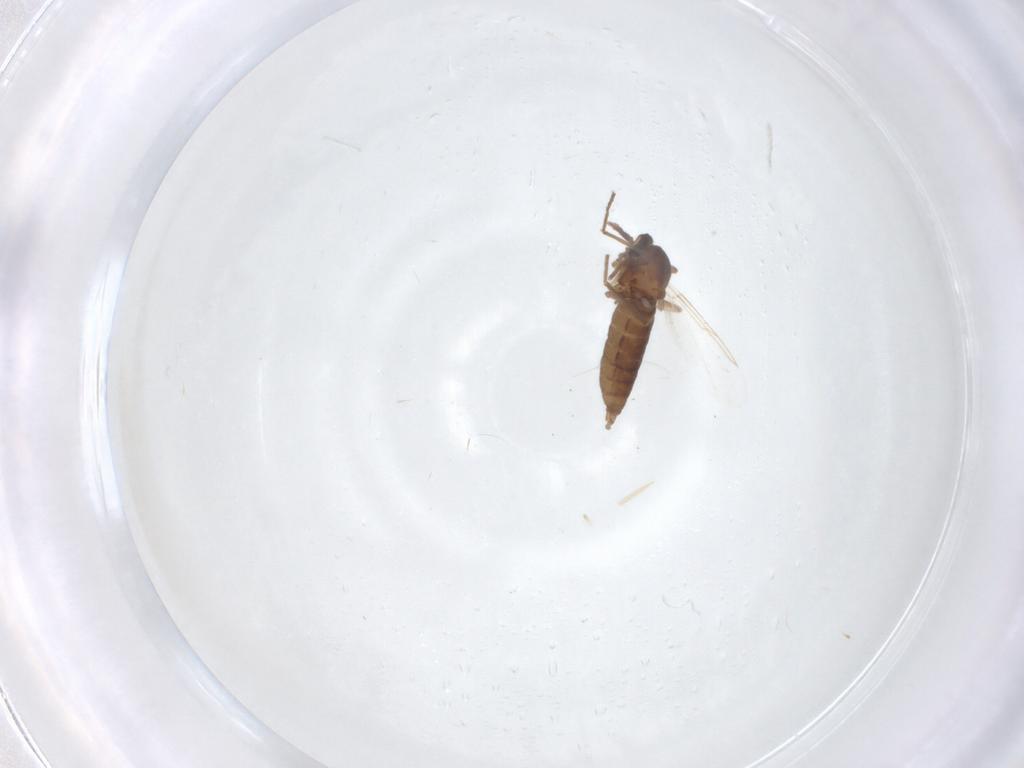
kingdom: Animalia
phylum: Arthropoda
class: Insecta
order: Diptera
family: Cecidomyiidae
